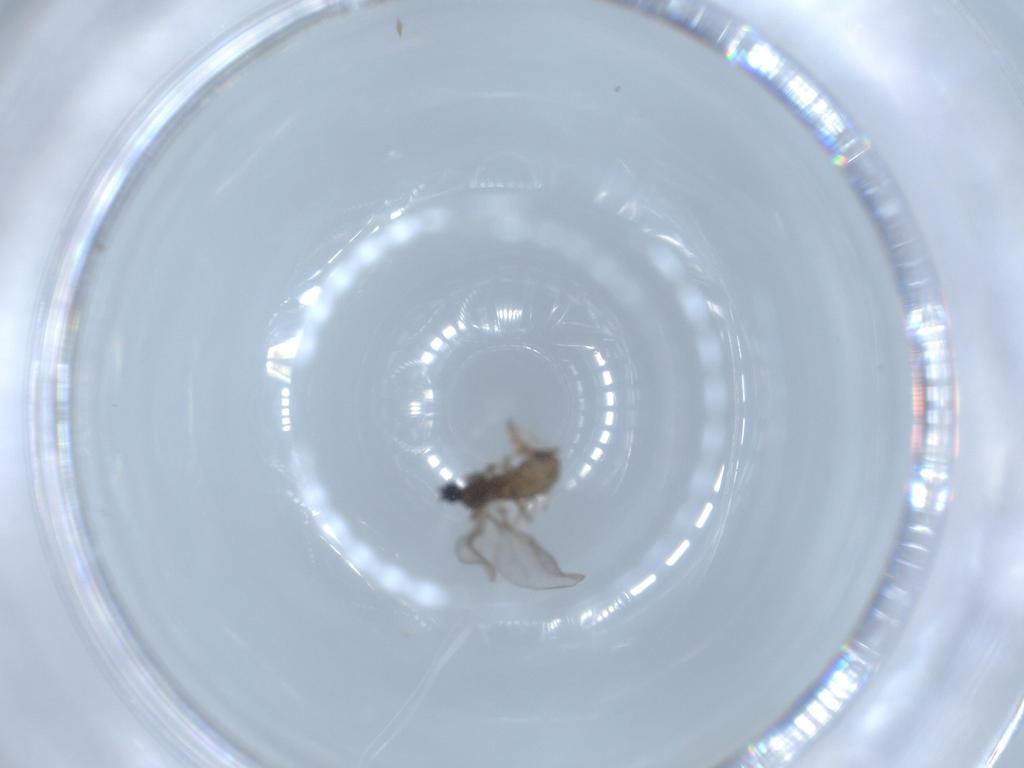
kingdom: Animalia
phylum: Arthropoda
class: Insecta
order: Diptera
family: Cecidomyiidae
